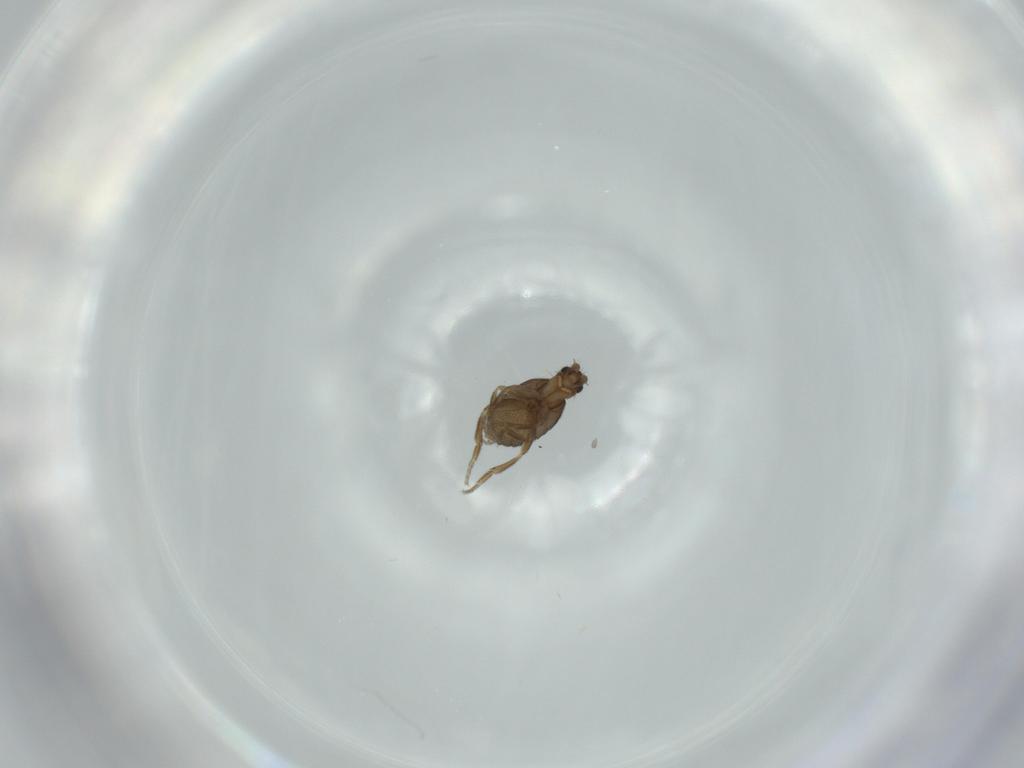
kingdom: Animalia
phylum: Arthropoda
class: Insecta
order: Diptera
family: Phoridae
